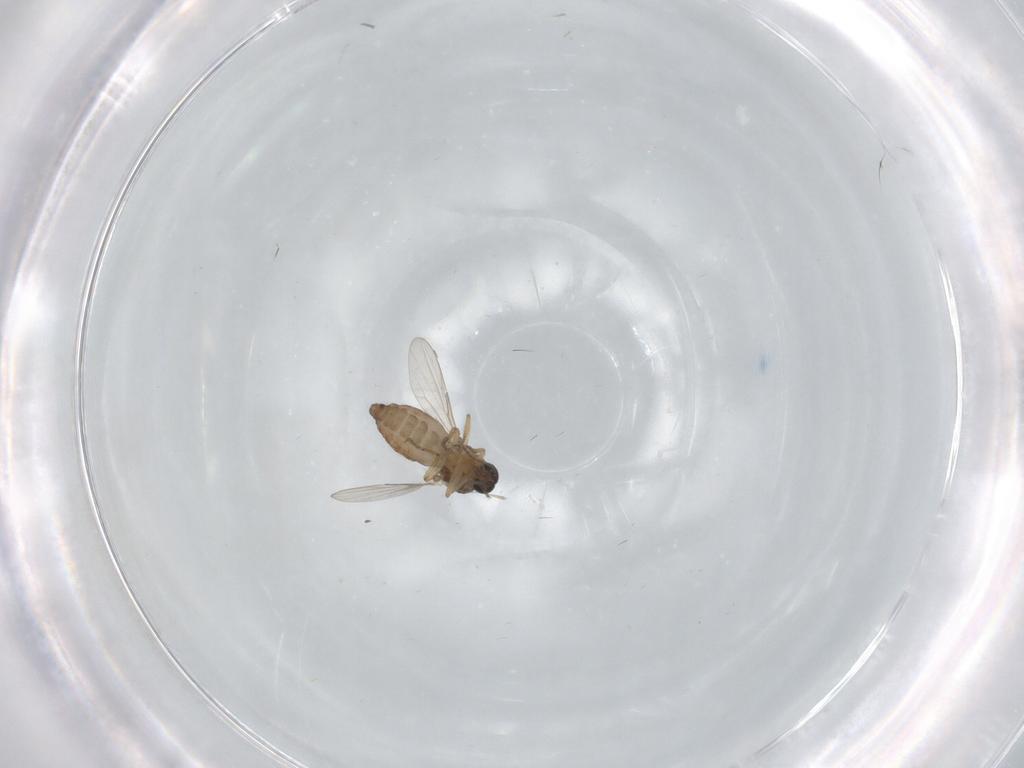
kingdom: Animalia
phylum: Arthropoda
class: Insecta
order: Diptera
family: Ceratopogonidae
